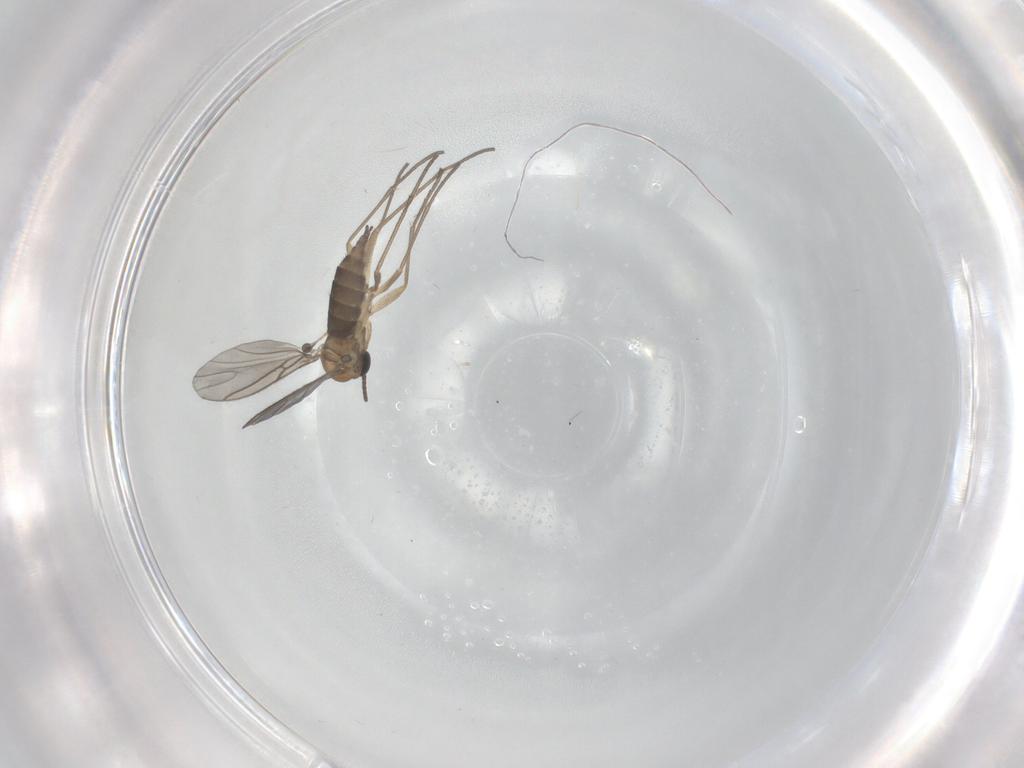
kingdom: Animalia
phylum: Arthropoda
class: Insecta
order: Diptera
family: Sciaridae
